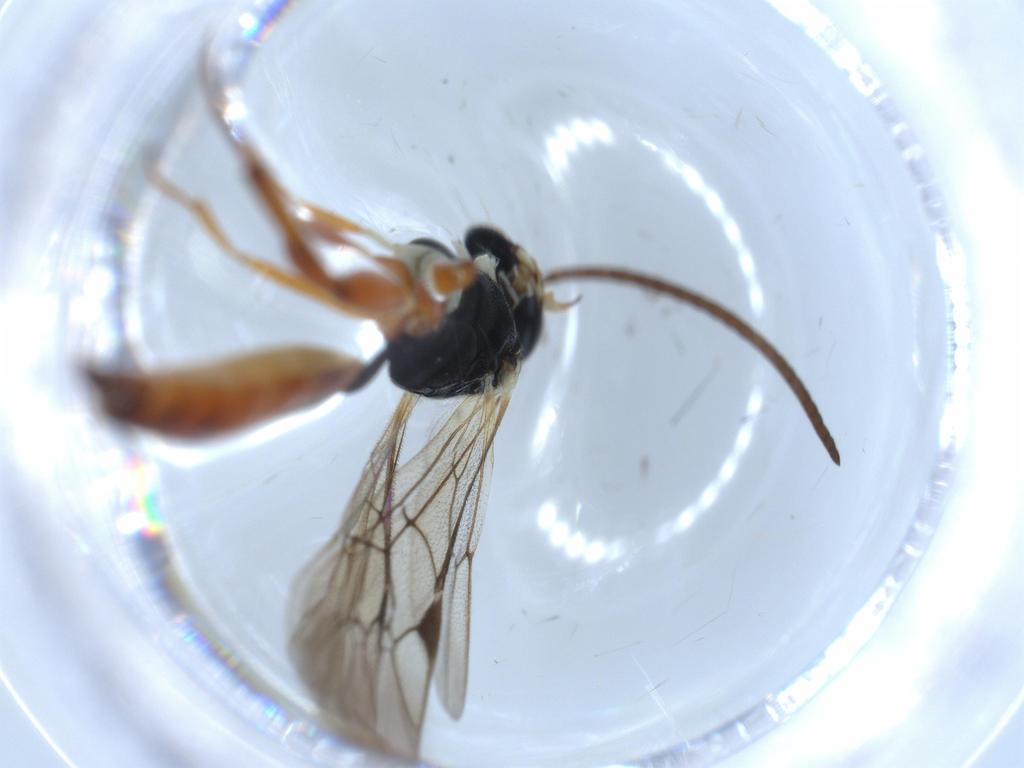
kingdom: Animalia
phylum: Arthropoda
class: Insecta
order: Hymenoptera
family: Ichneumonidae
